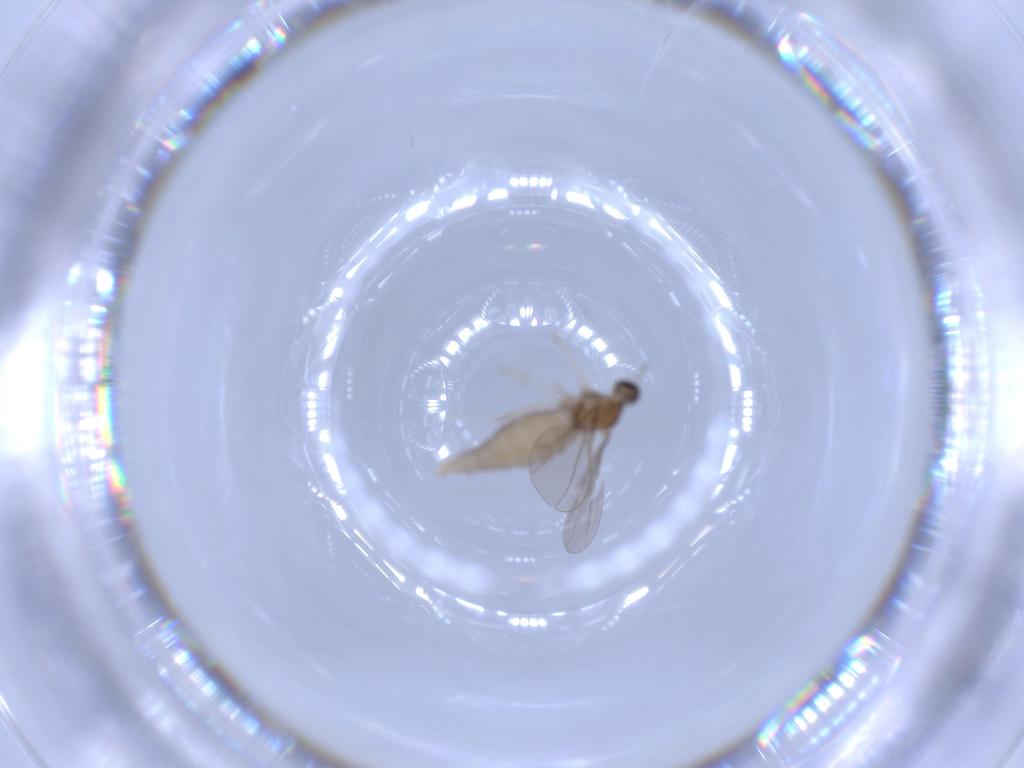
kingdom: Animalia
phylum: Arthropoda
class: Insecta
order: Diptera
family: Cecidomyiidae
